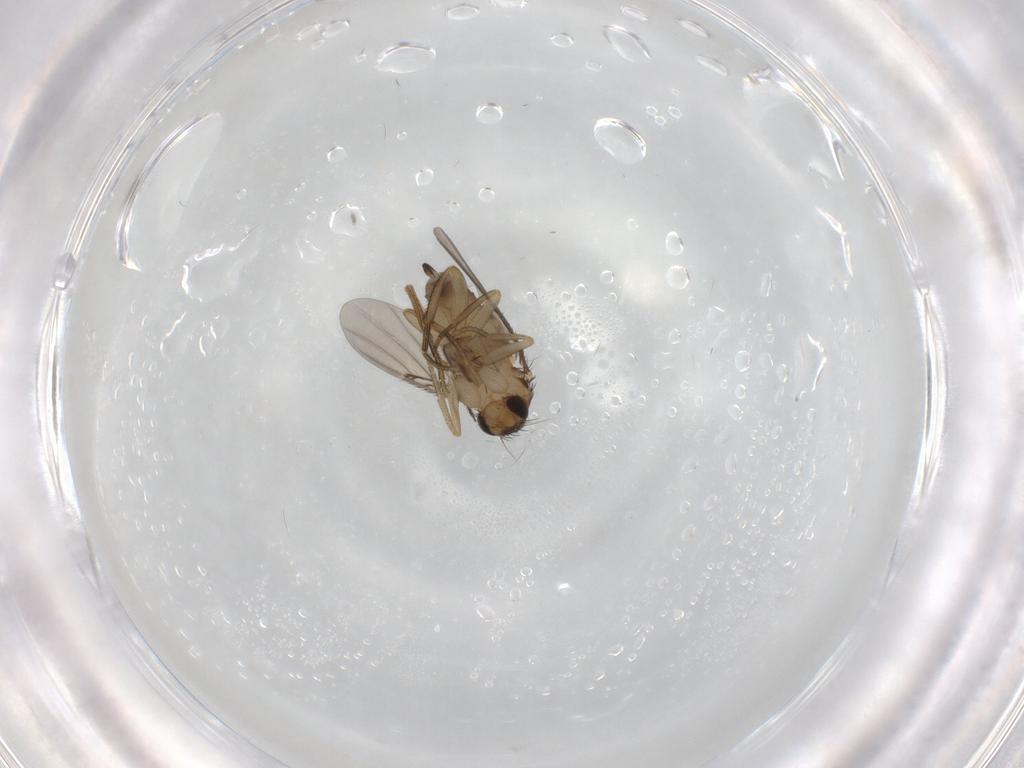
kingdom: Animalia
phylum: Arthropoda
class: Insecta
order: Diptera
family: Phoridae
